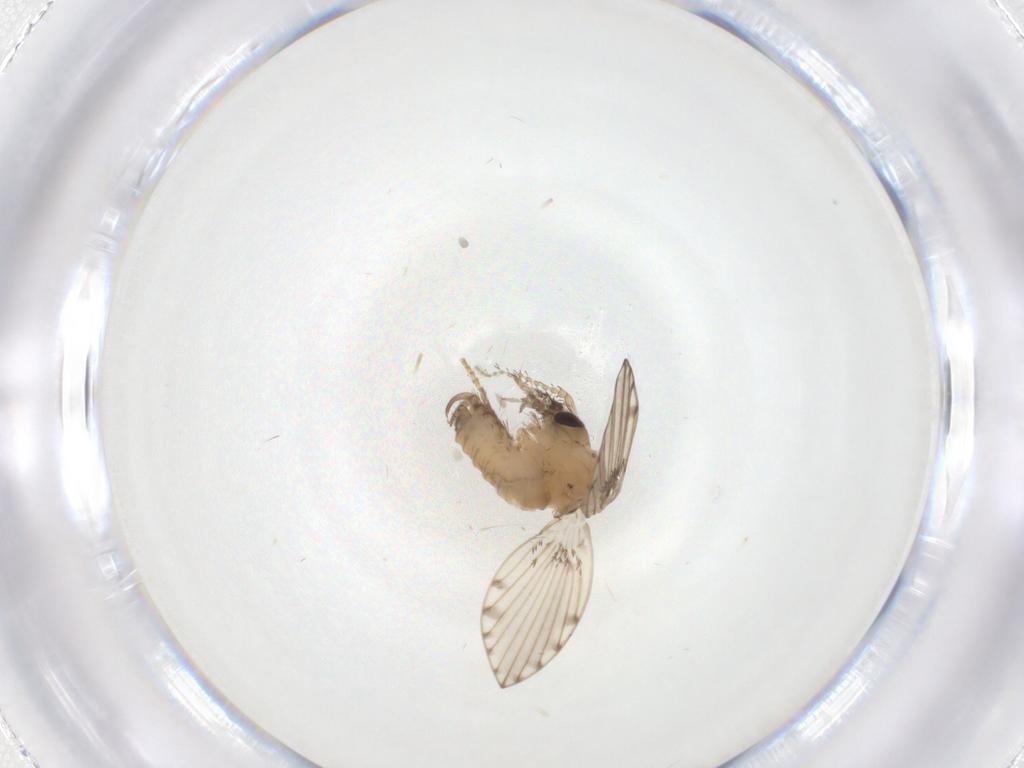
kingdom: Animalia
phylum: Arthropoda
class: Insecta
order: Diptera
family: Psychodidae
